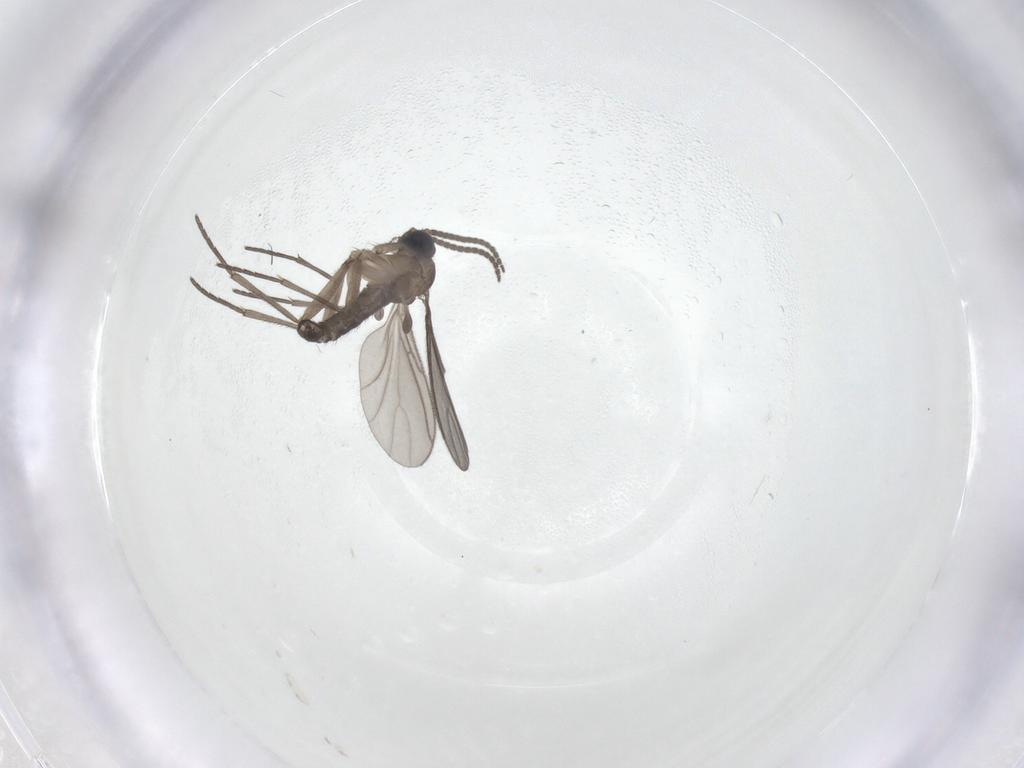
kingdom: Animalia
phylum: Arthropoda
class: Insecta
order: Diptera
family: Sciaridae
